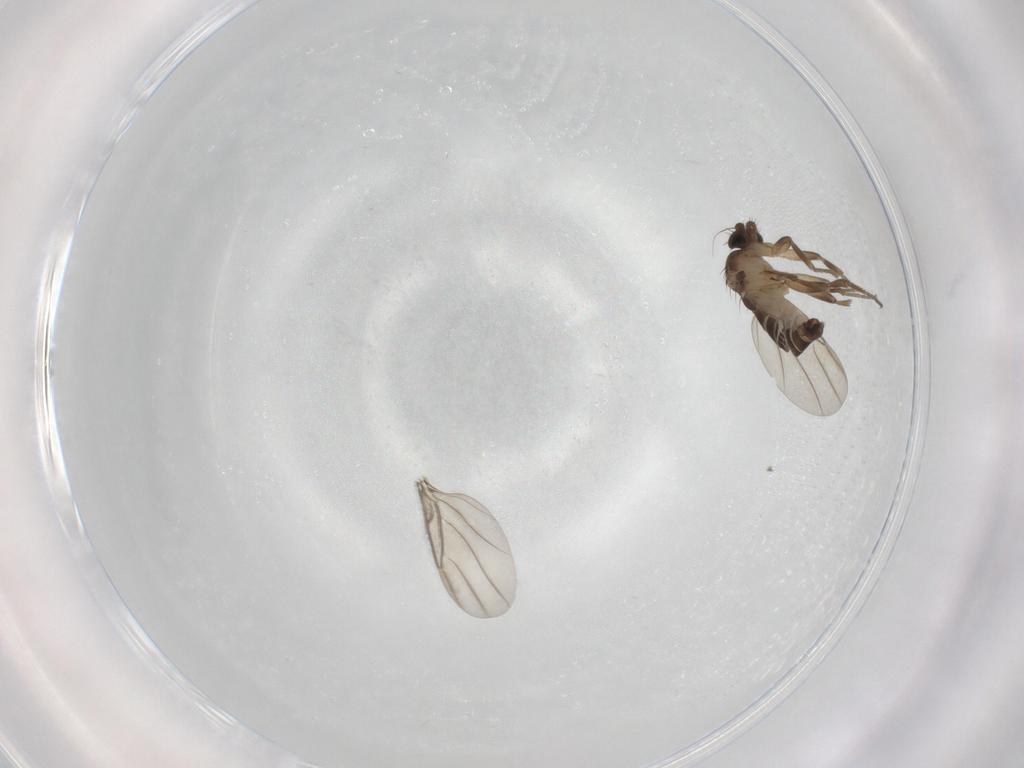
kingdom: Animalia
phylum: Arthropoda
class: Insecta
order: Diptera
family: Phoridae
